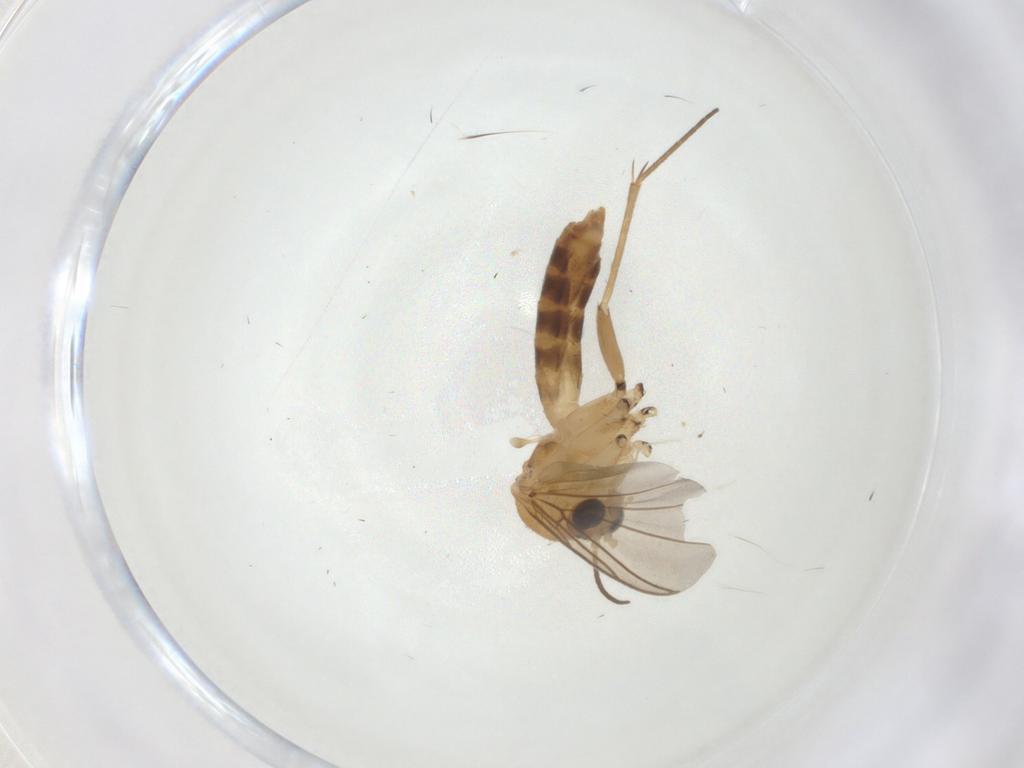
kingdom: Animalia
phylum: Arthropoda
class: Insecta
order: Diptera
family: Mycetophilidae
